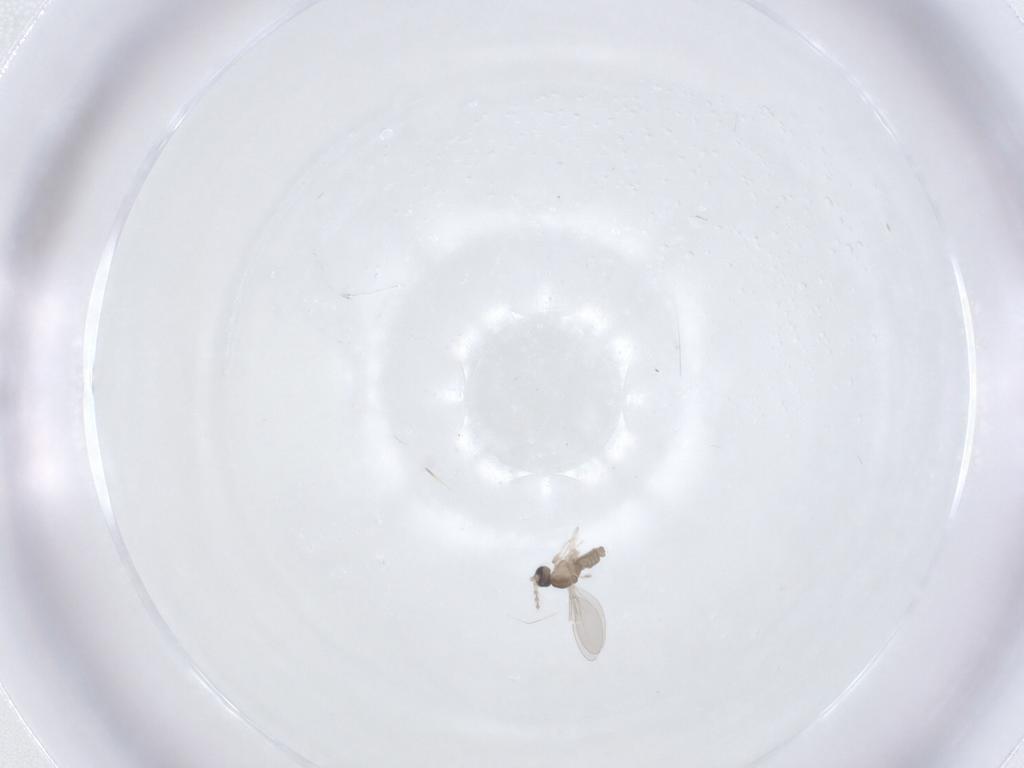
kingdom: Animalia
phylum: Arthropoda
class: Insecta
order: Diptera
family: Cecidomyiidae
